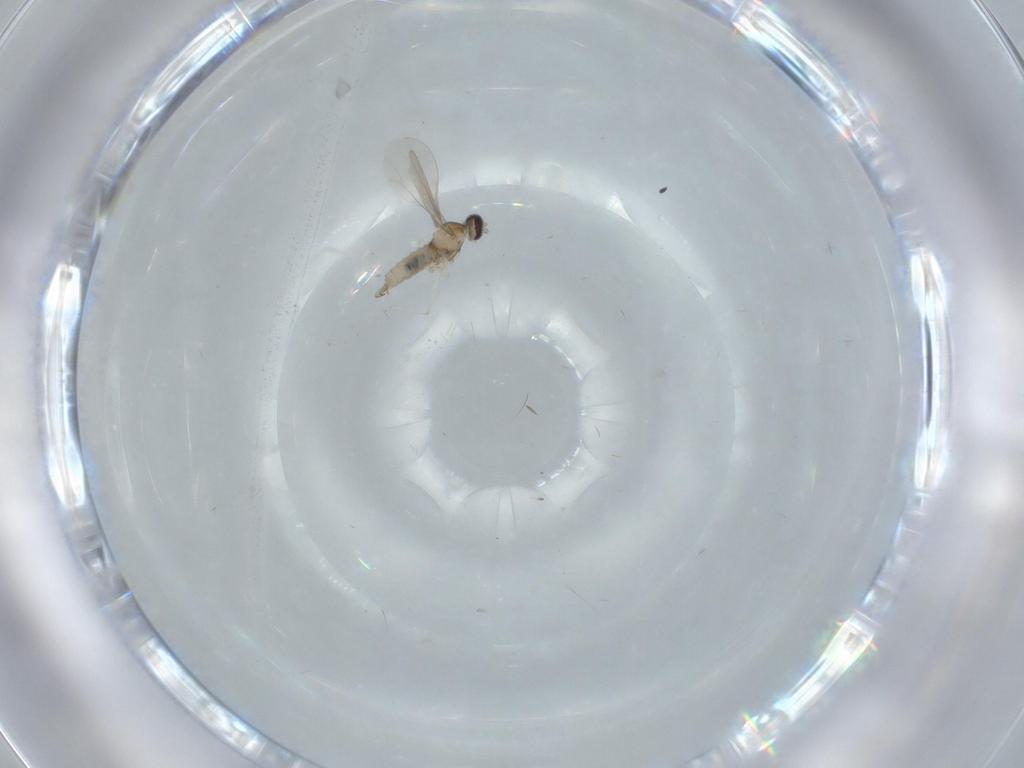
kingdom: Animalia
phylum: Arthropoda
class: Insecta
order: Diptera
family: Cecidomyiidae
